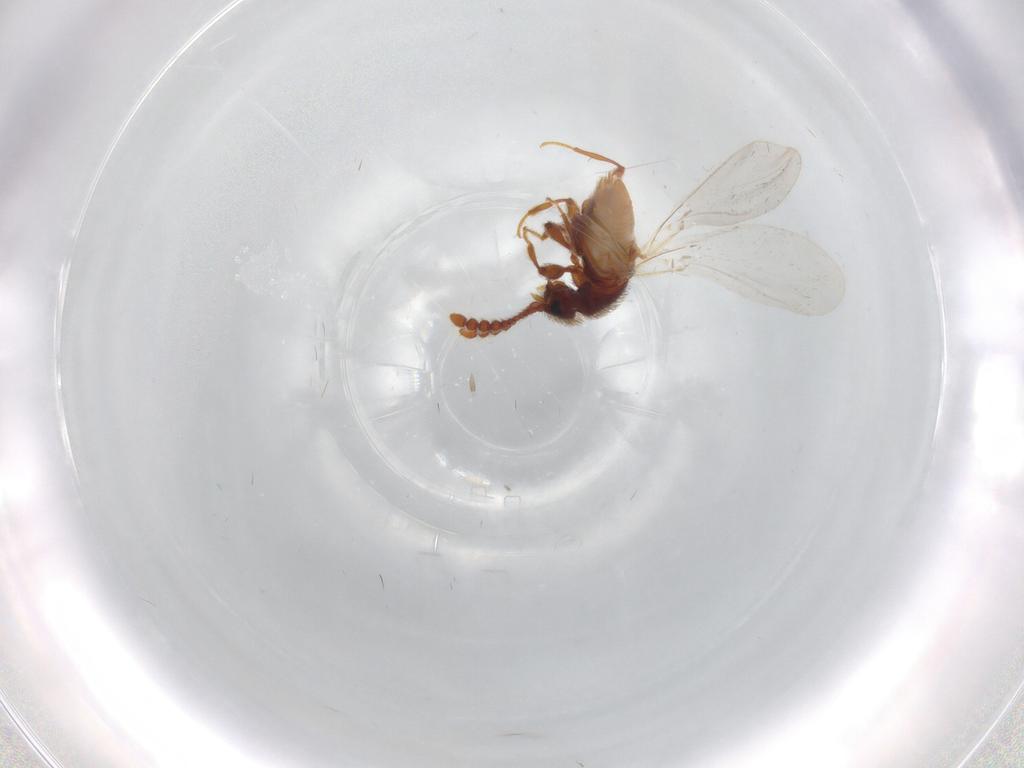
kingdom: Animalia
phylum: Arthropoda
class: Insecta
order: Coleoptera
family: Staphylinidae
